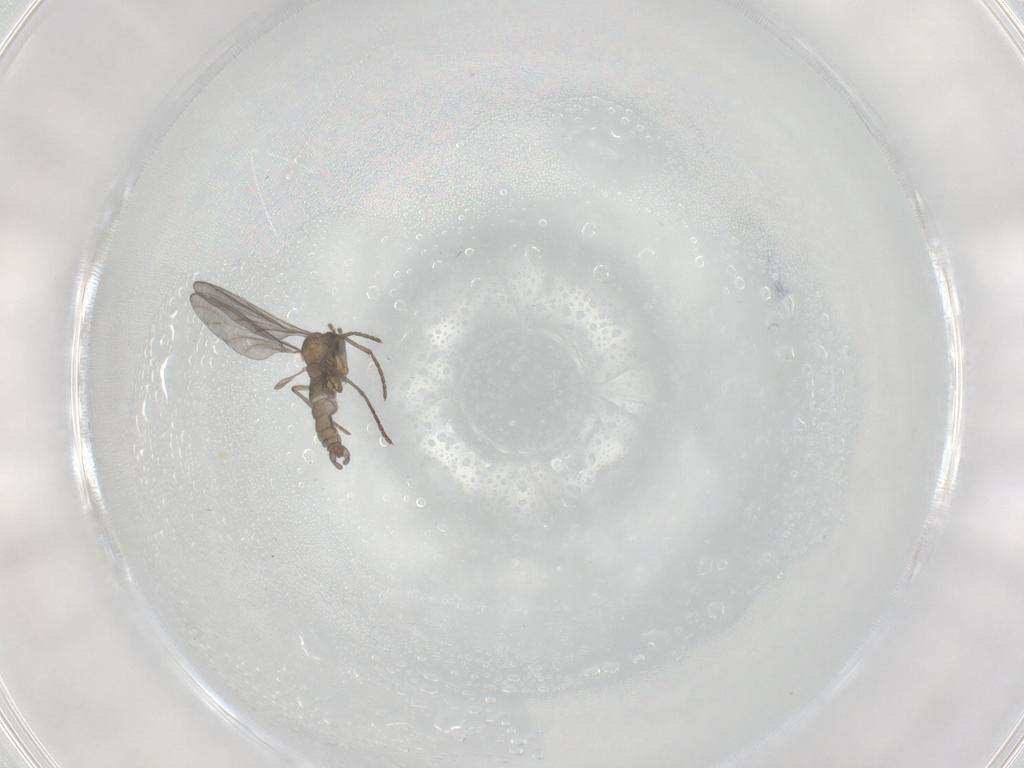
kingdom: Animalia
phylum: Arthropoda
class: Insecta
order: Diptera
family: Sciaridae
